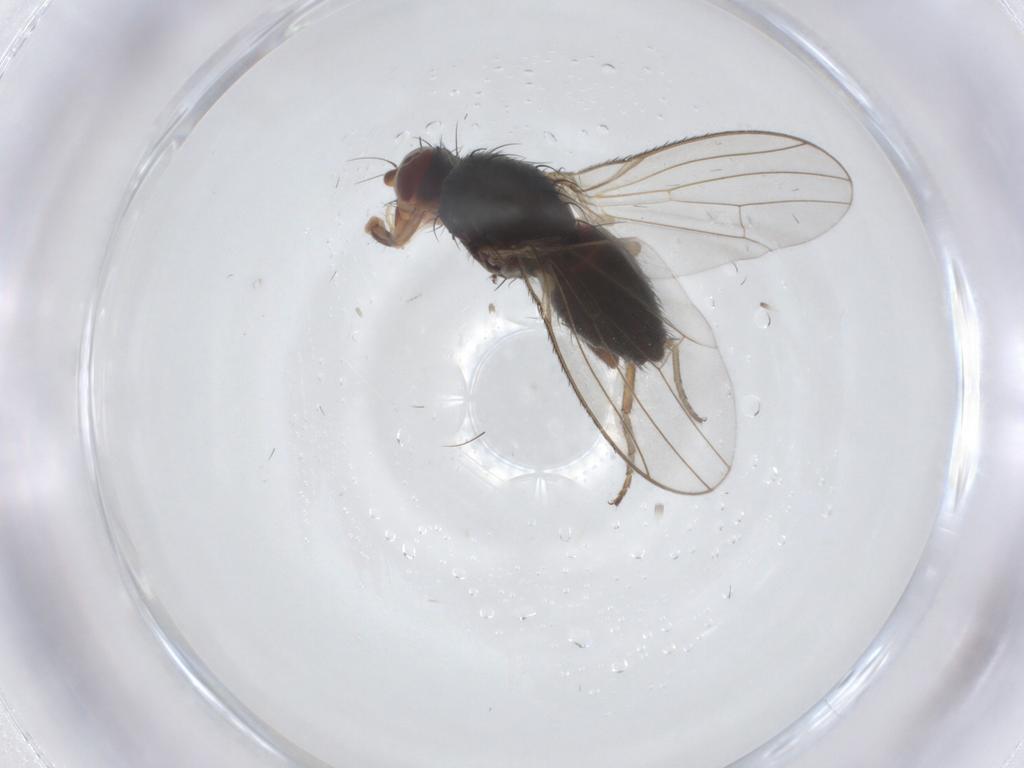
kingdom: Animalia
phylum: Arthropoda
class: Insecta
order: Diptera
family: Heleomyzidae
